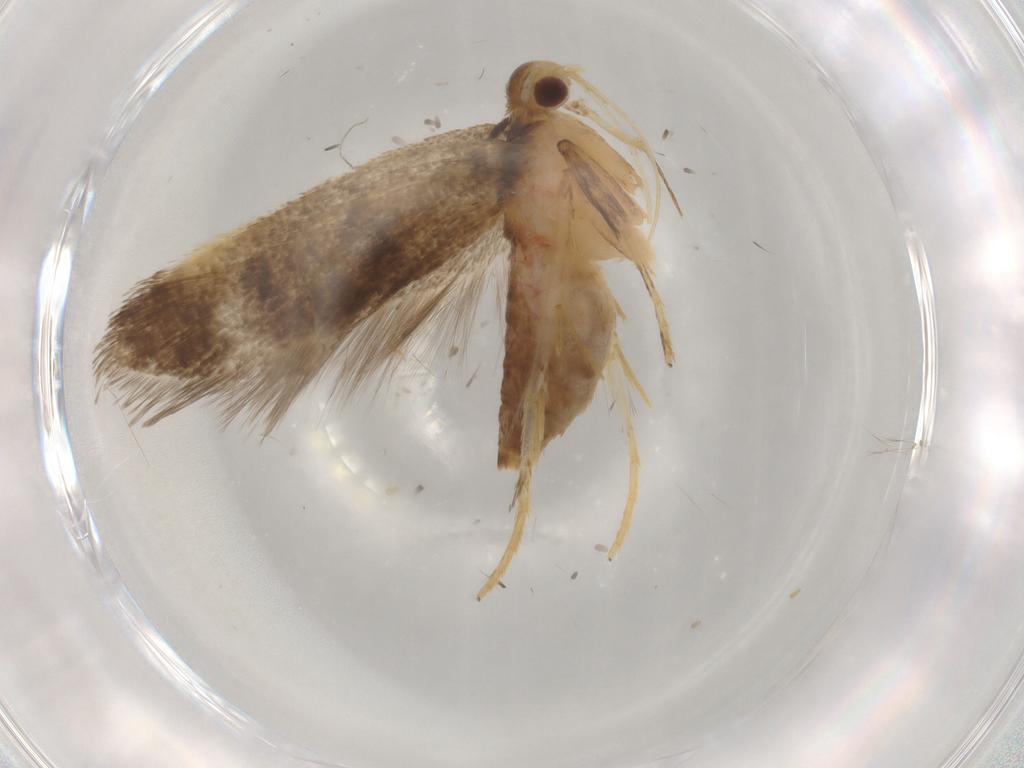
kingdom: Animalia
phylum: Arthropoda
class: Insecta
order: Lepidoptera
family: Lecithoceridae
